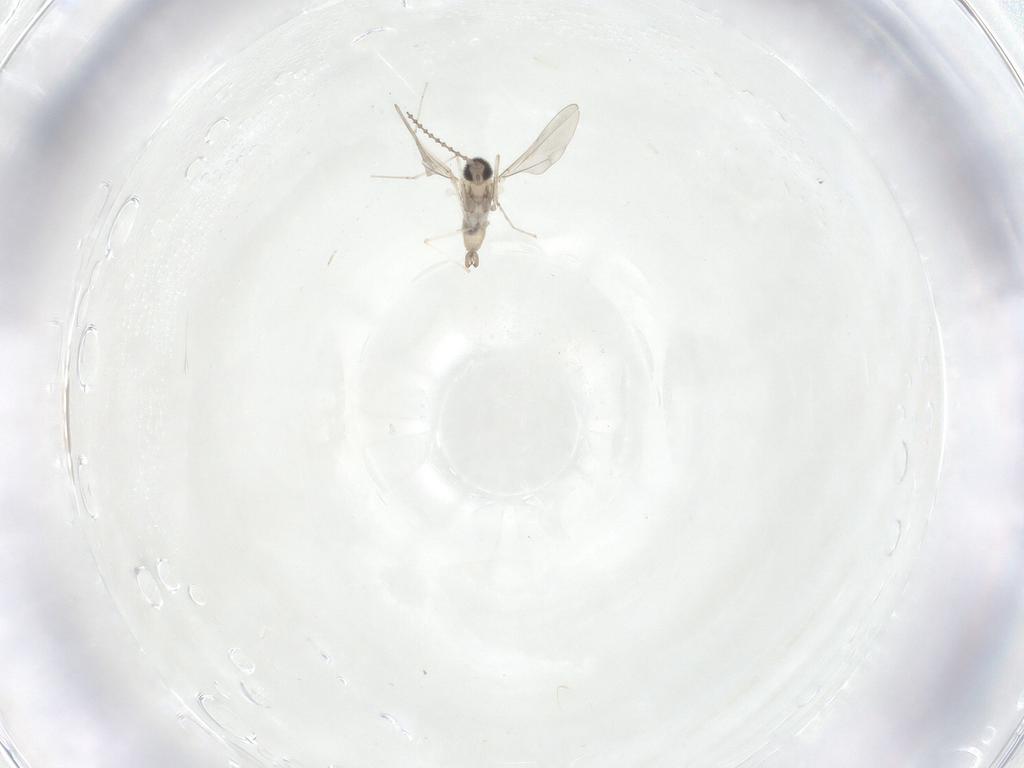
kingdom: Animalia
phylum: Arthropoda
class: Insecta
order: Diptera
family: Cecidomyiidae
